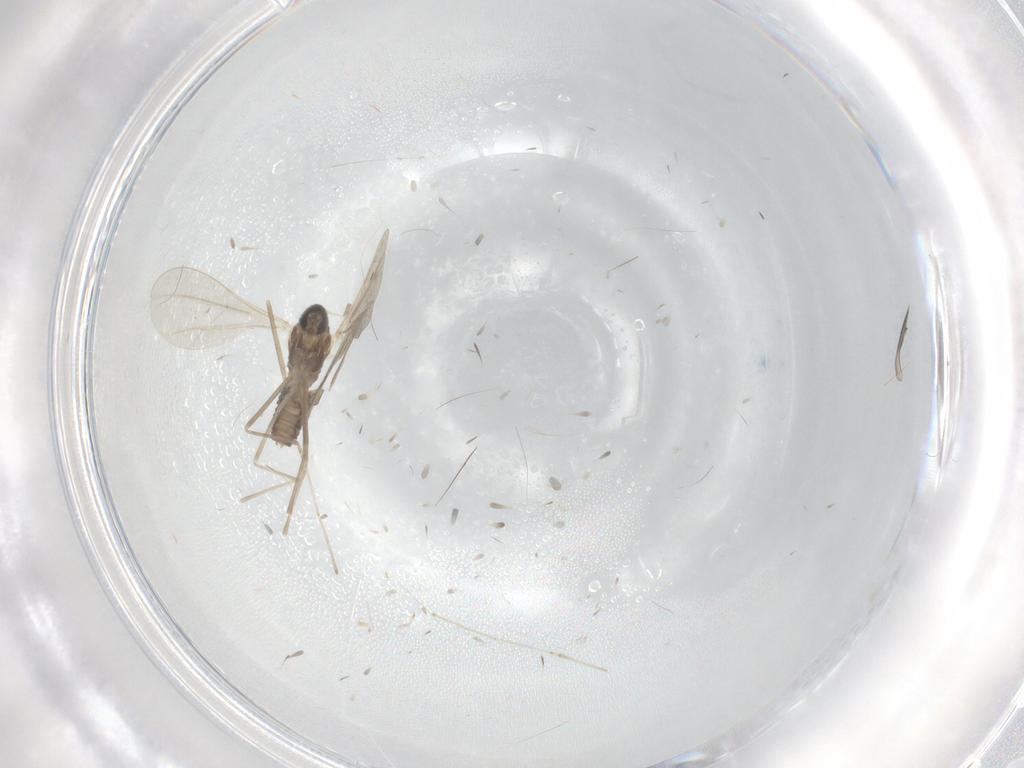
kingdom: Animalia
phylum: Arthropoda
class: Insecta
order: Diptera
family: Cecidomyiidae
